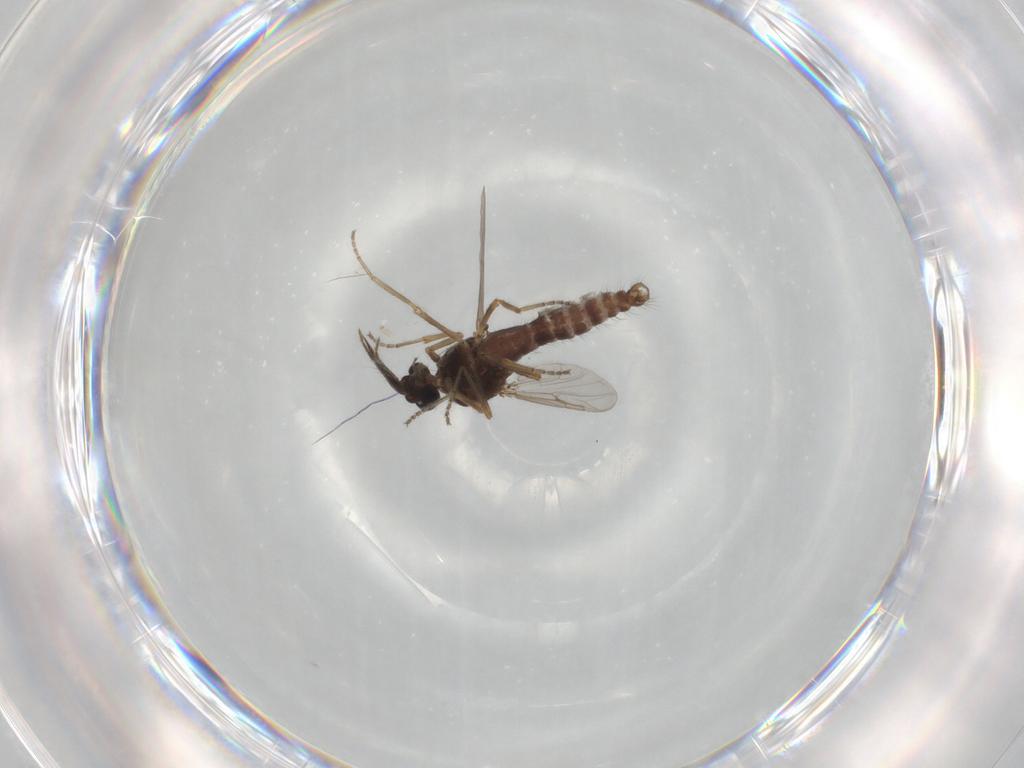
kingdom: Animalia
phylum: Arthropoda
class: Insecta
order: Diptera
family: Ceratopogonidae
